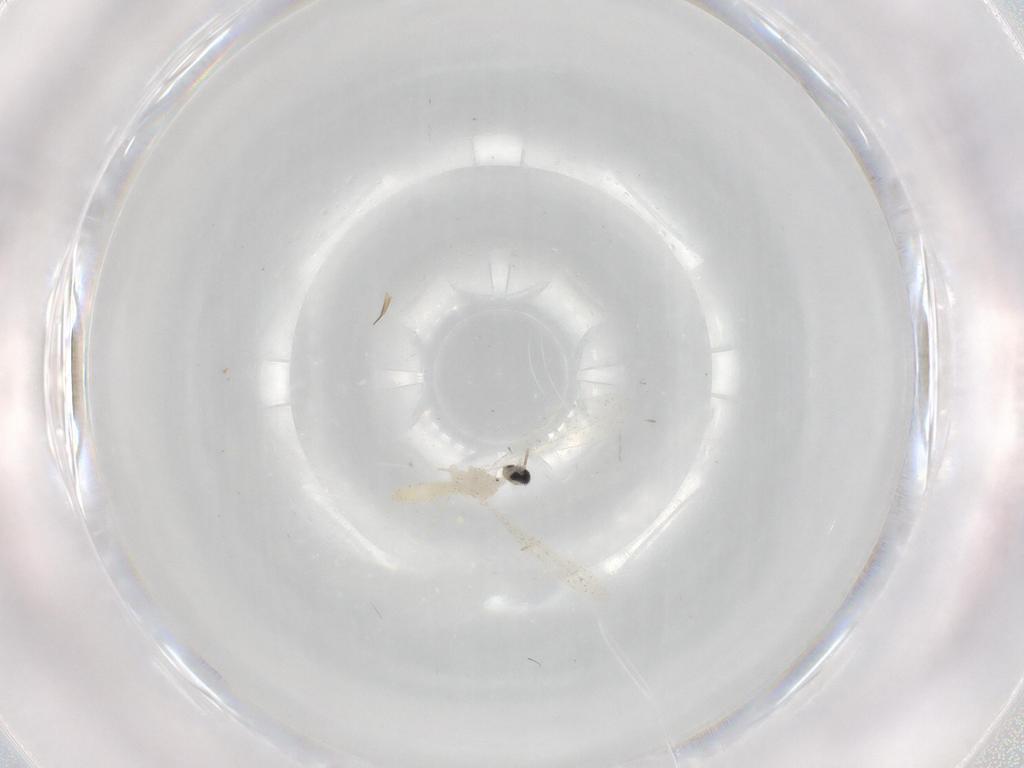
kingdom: Animalia
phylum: Arthropoda
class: Insecta
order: Diptera
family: Cecidomyiidae
